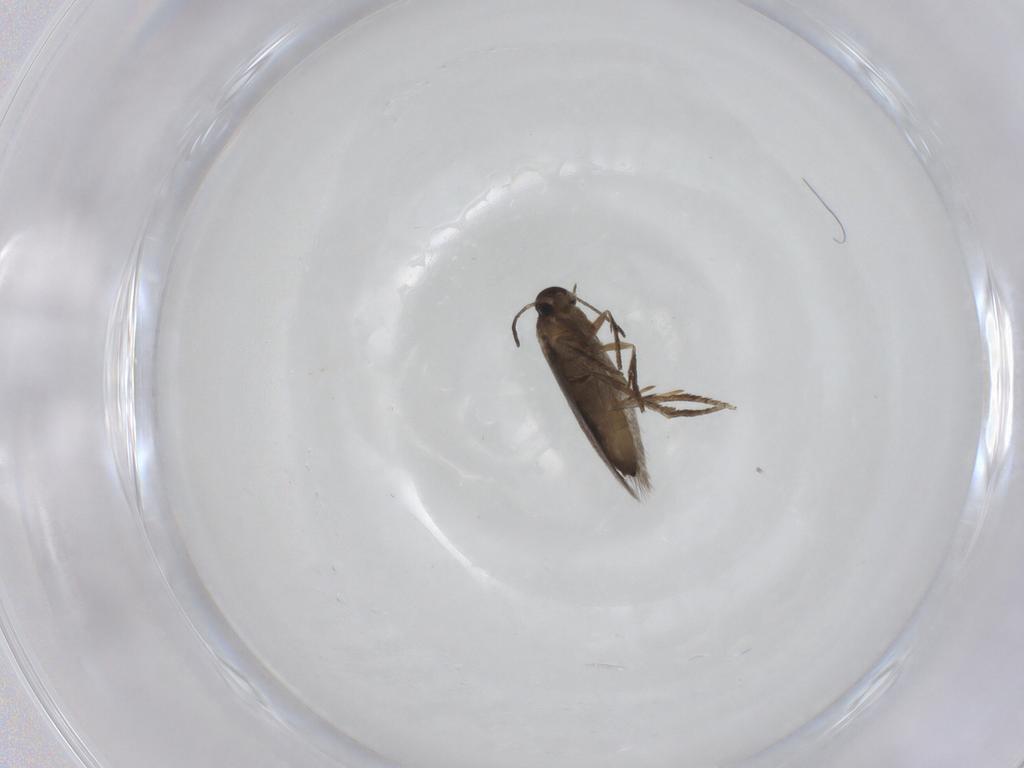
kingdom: Animalia
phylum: Arthropoda
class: Insecta
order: Lepidoptera
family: Heliozelidae
